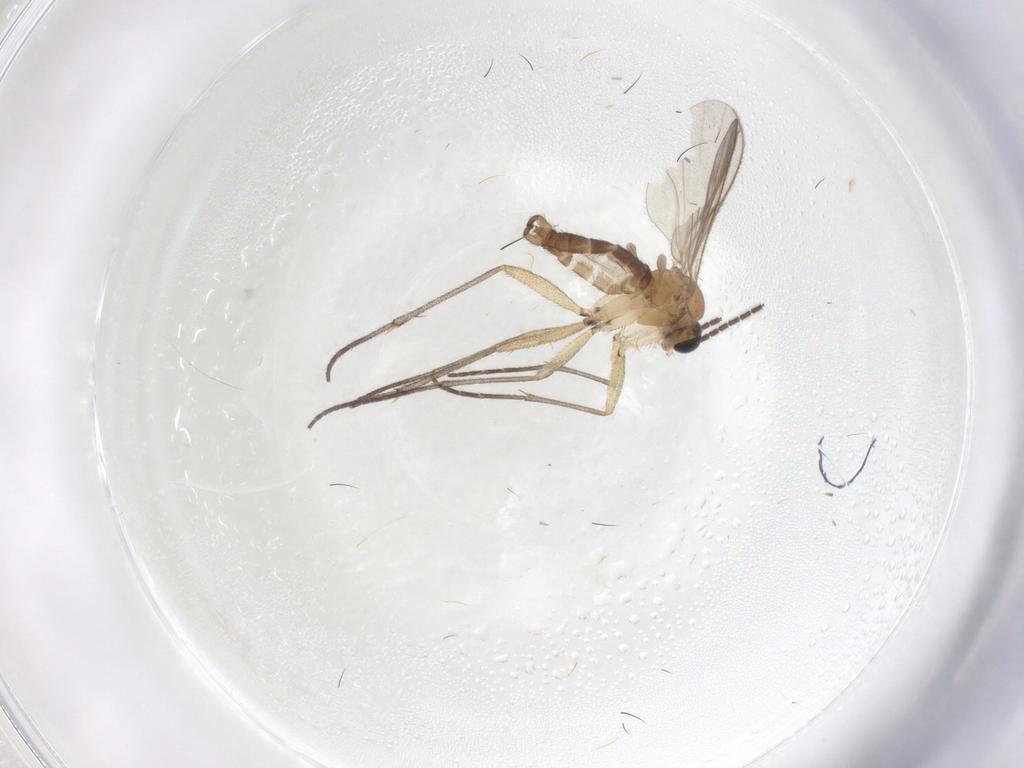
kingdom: Animalia
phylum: Arthropoda
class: Insecta
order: Diptera
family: Sciaridae
